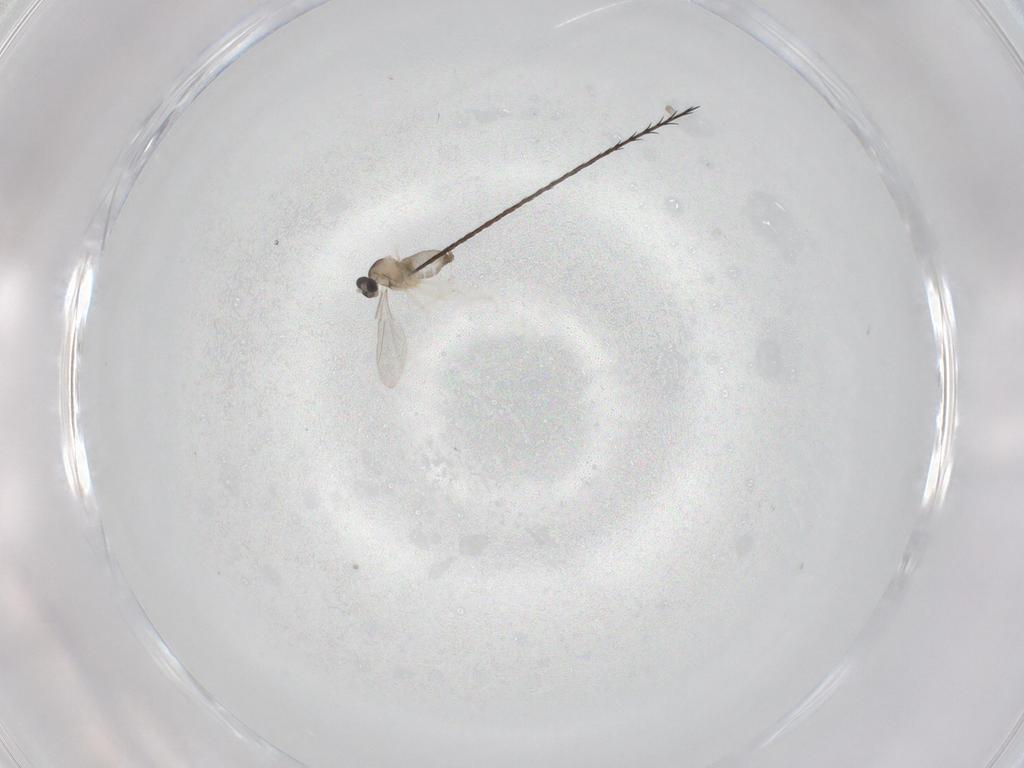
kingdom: Animalia
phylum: Arthropoda
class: Insecta
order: Diptera
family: Cecidomyiidae
